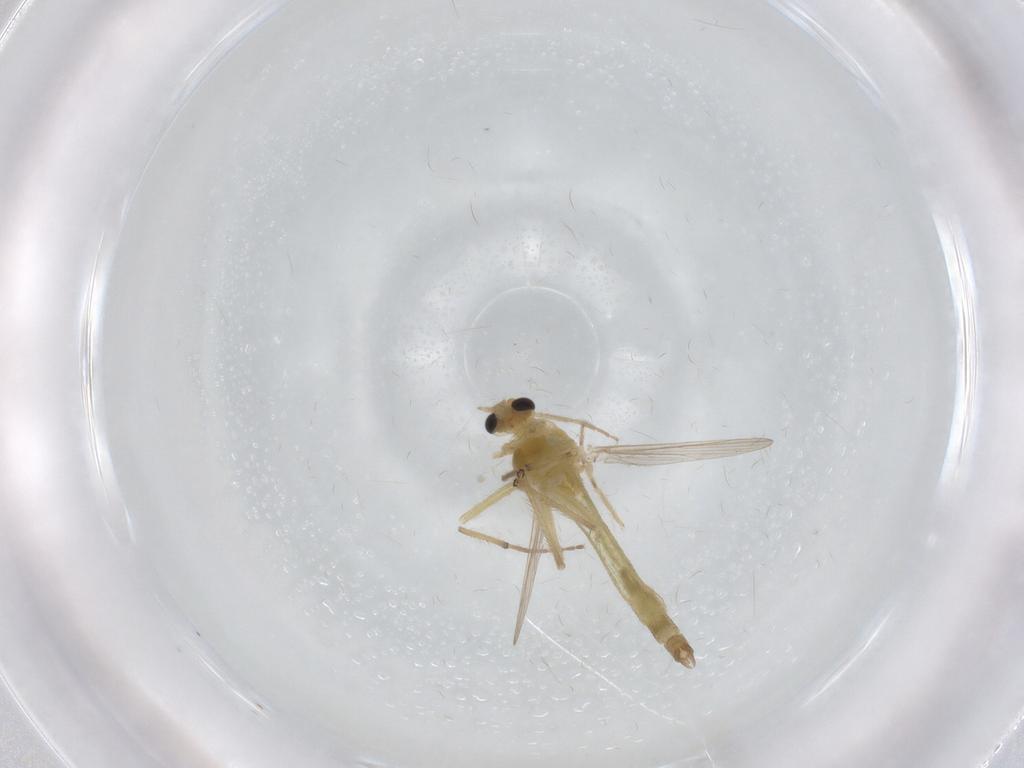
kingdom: Animalia
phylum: Arthropoda
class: Insecta
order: Diptera
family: Chironomidae
